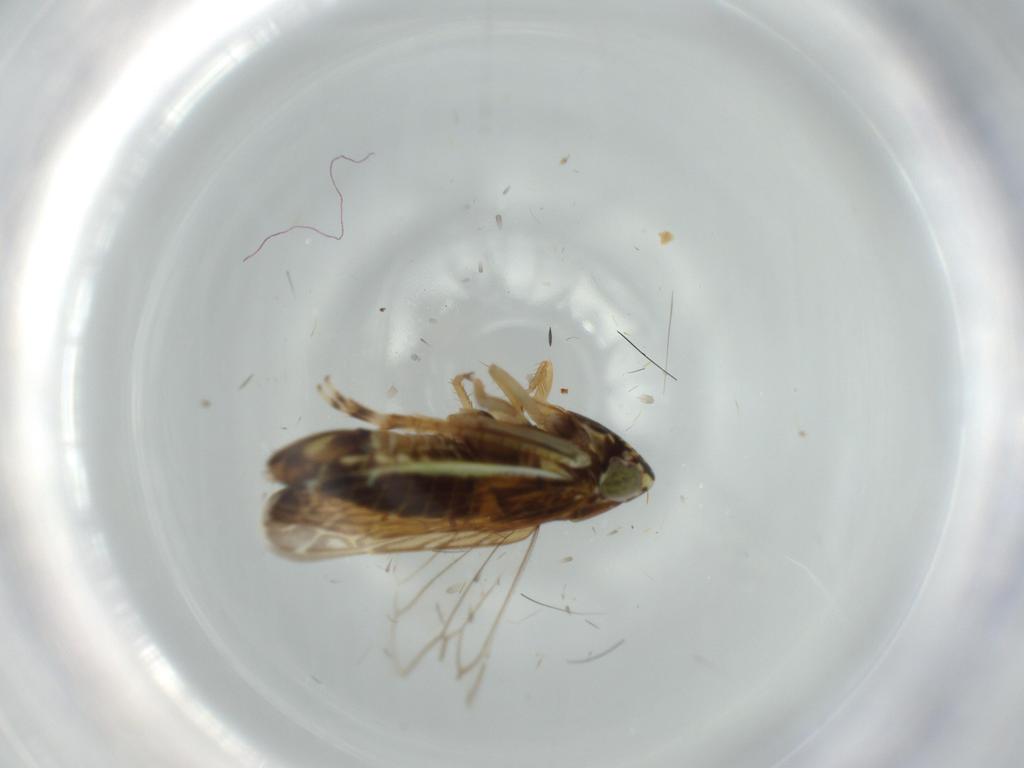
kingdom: Animalia
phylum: Arthropoda
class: Insecta
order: Hemiptera
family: Cicadellidae
